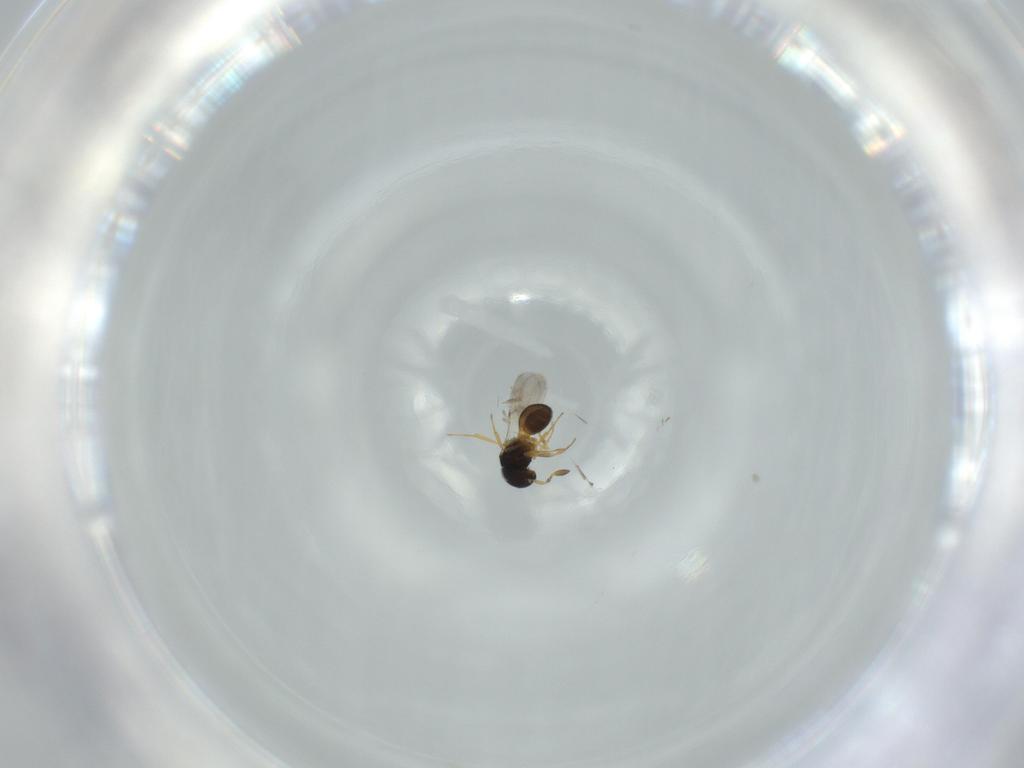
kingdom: Animalia
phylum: Arthropoda
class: Insecta
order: Hymenoptera
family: Scelionidae
